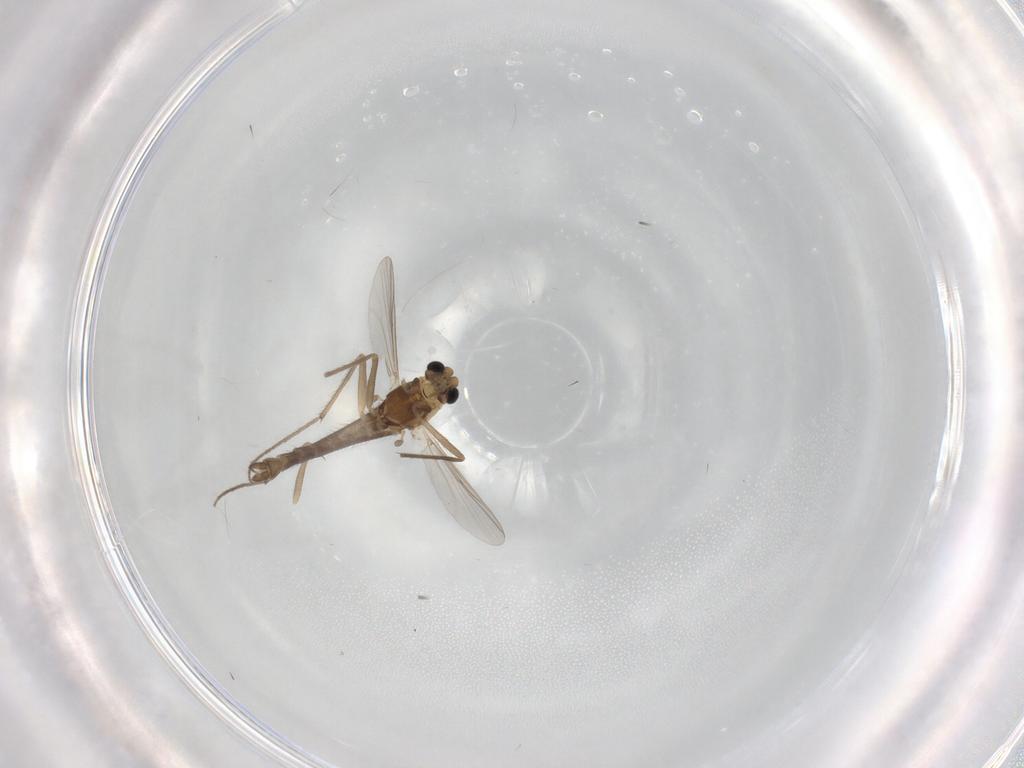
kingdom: Animalia
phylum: Arthropoda
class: Insecta
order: Diptera
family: Chironomidae
